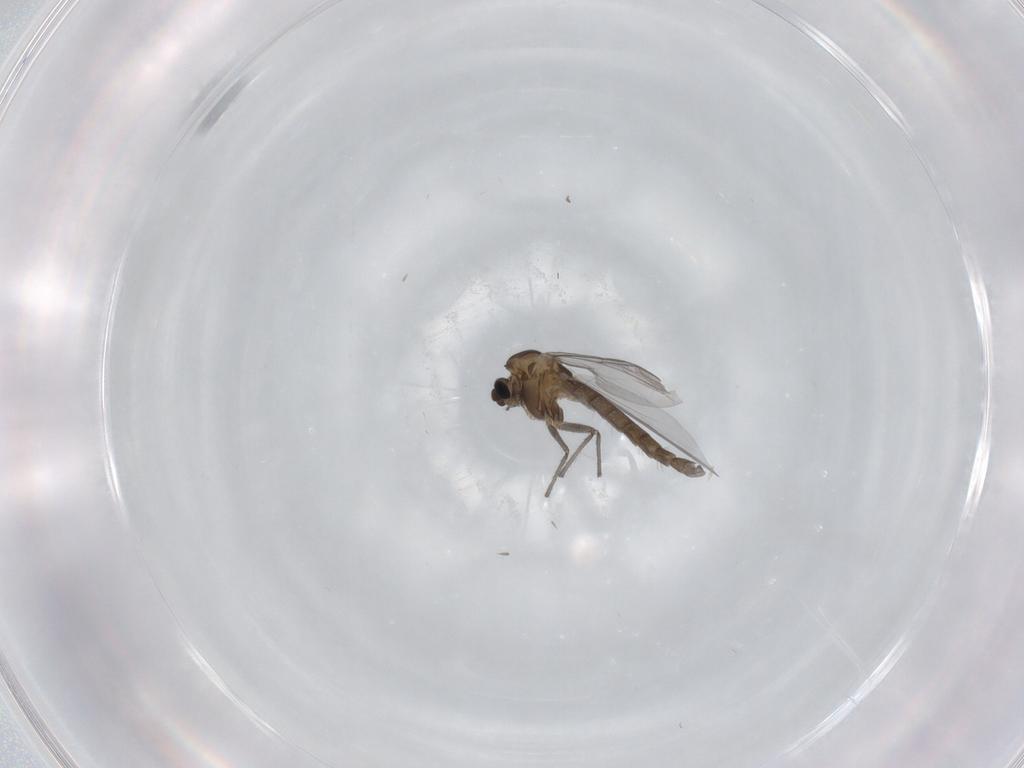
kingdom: Animalia
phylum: Arthropoda
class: Insecta
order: Diptera
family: Chironomidae
